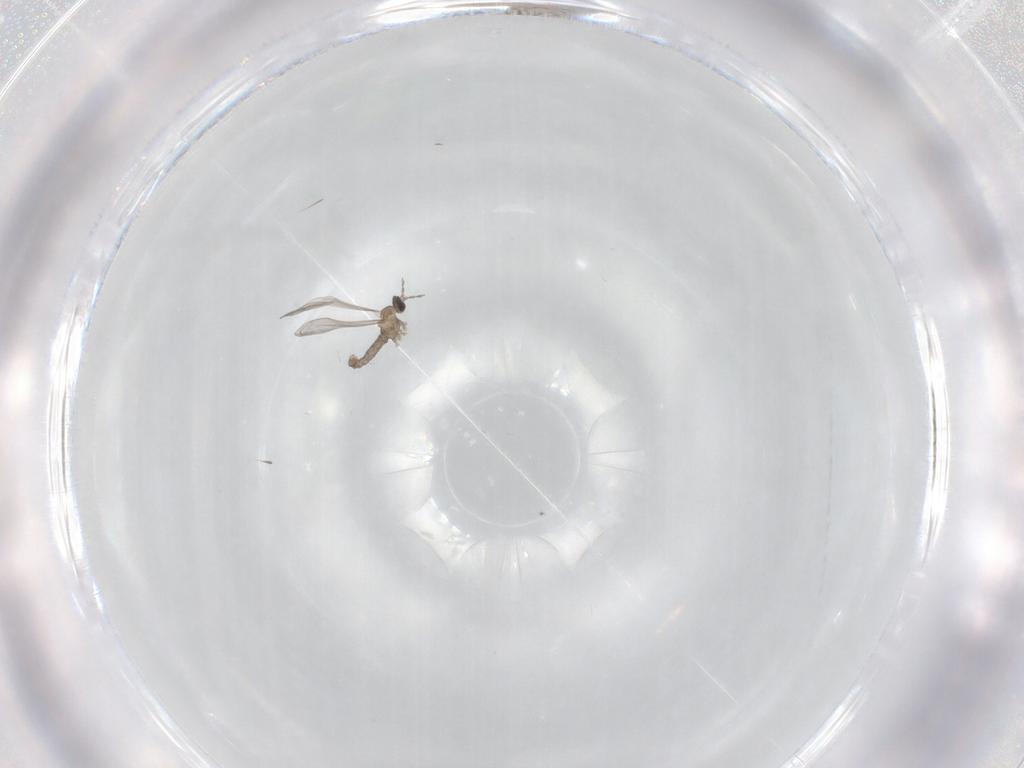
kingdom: Animalia
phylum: Arthropoda
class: Insecta
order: Diptera
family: Cecidomyiidae
